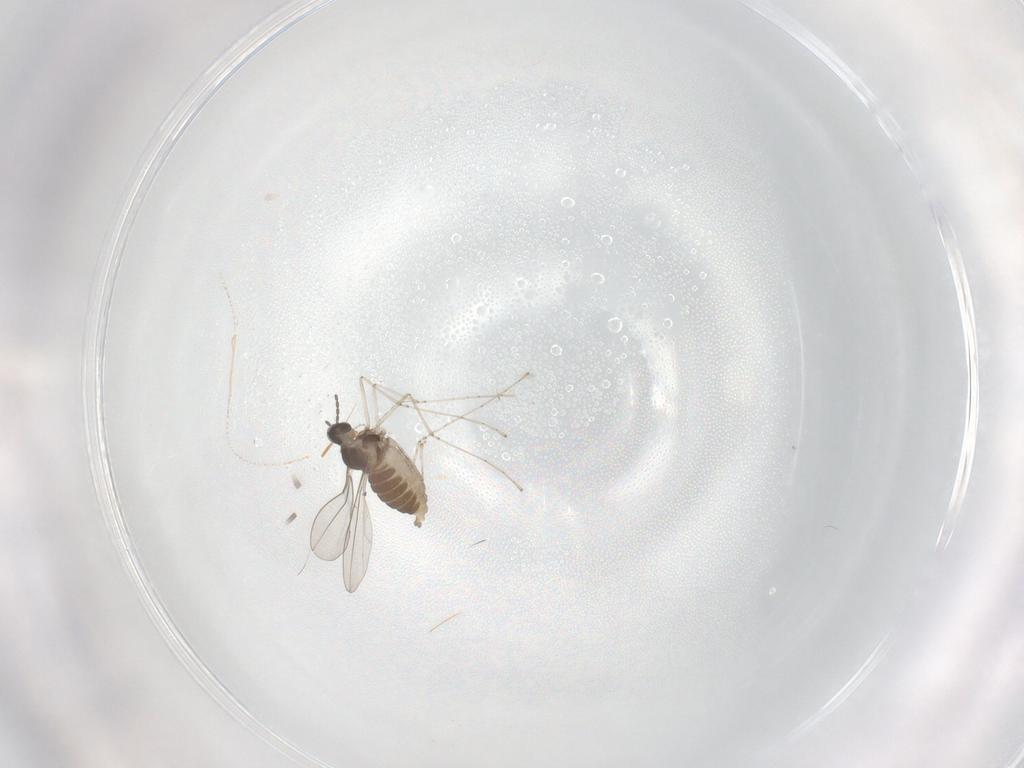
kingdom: Animalia
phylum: Arthropoda
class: Insecta
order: Diptera
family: Cecidomyiidae
